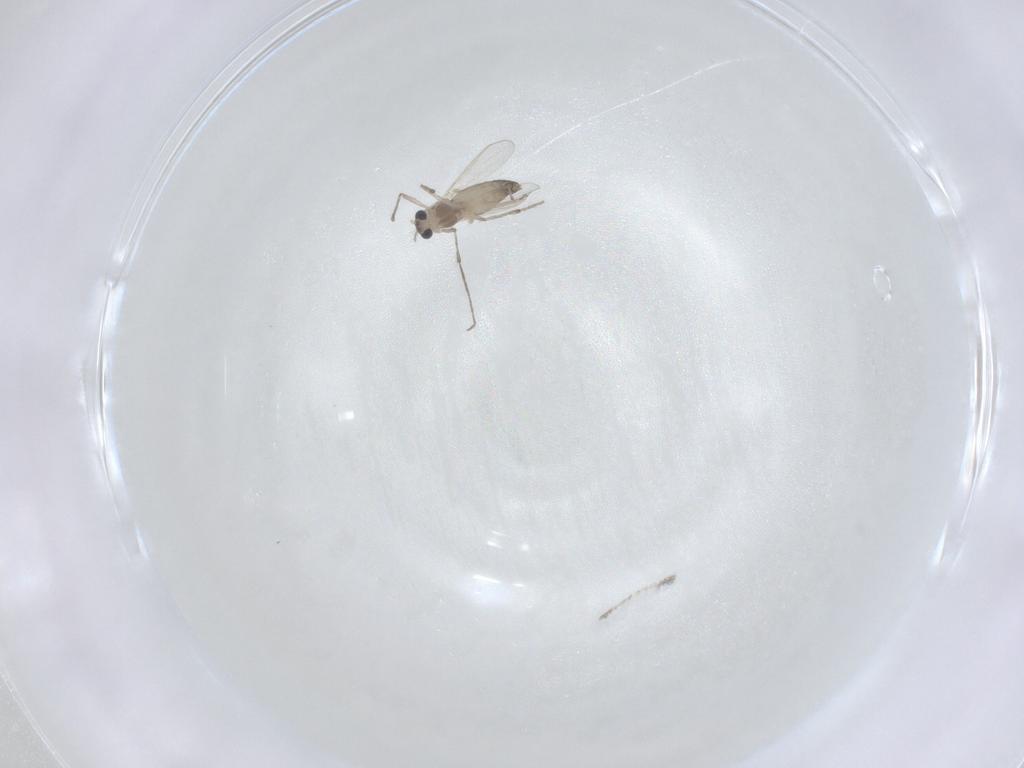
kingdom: Animalia
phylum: Arthropoda
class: Insecta
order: Diptera
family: Chironomidae
